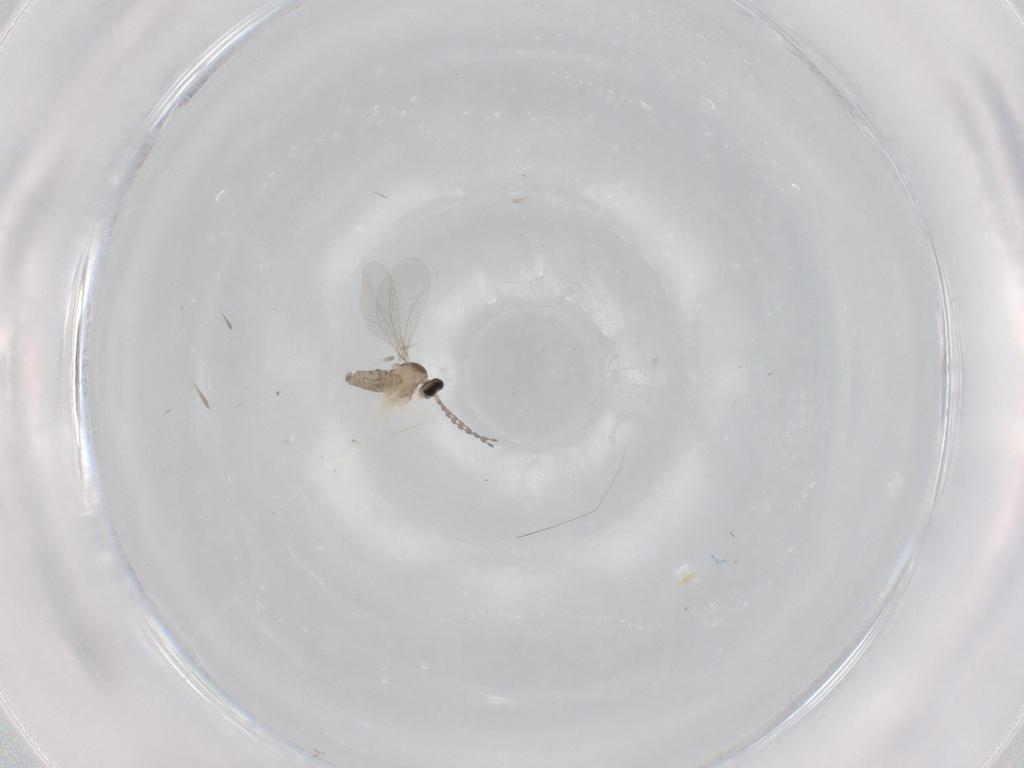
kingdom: Animalia
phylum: Arthropoda
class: Insecta
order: Diptera
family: Cecidomyiidae
